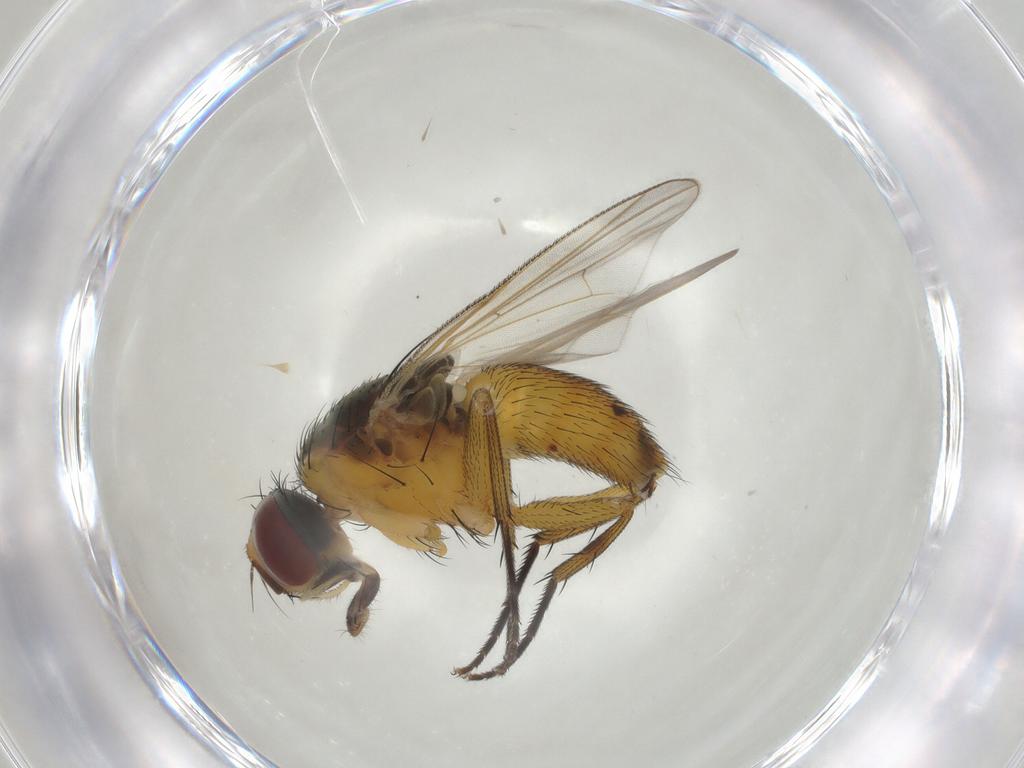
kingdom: Animalia
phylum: Arthropoda
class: Insecta
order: Diptera
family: Muscidae
